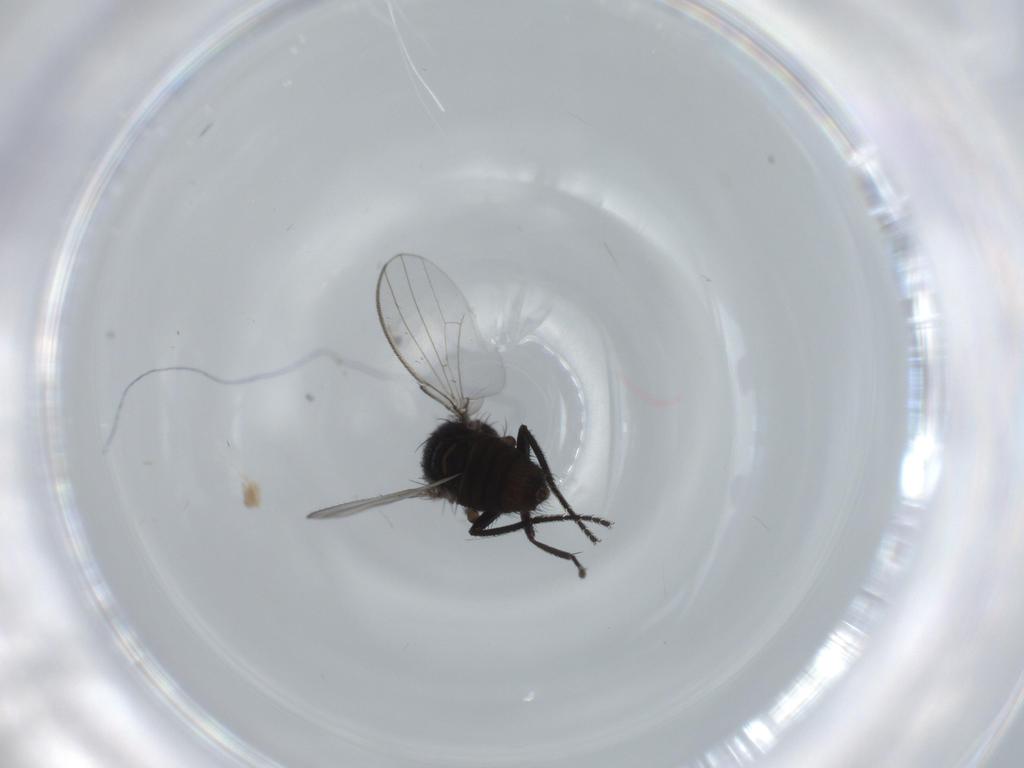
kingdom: Animalia
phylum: Arthropoda
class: Insecta
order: Diptera
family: Milichiidae
